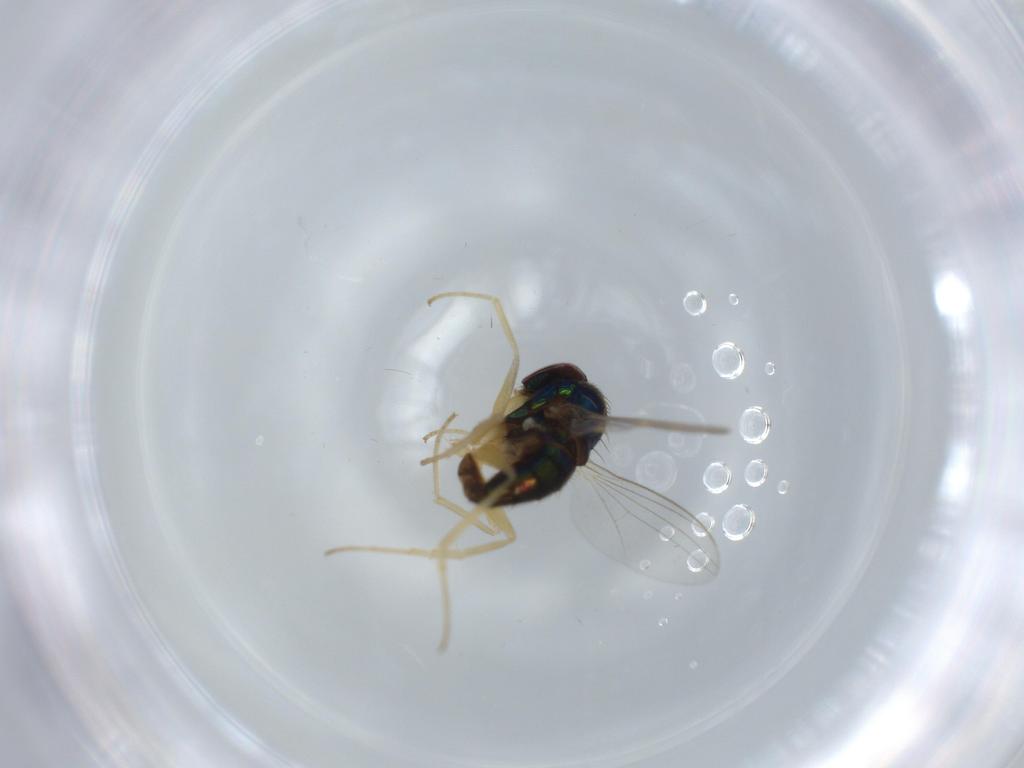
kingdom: Animalia
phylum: Arthropoda
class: Insecta
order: Diptera
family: Dolichopodidae
